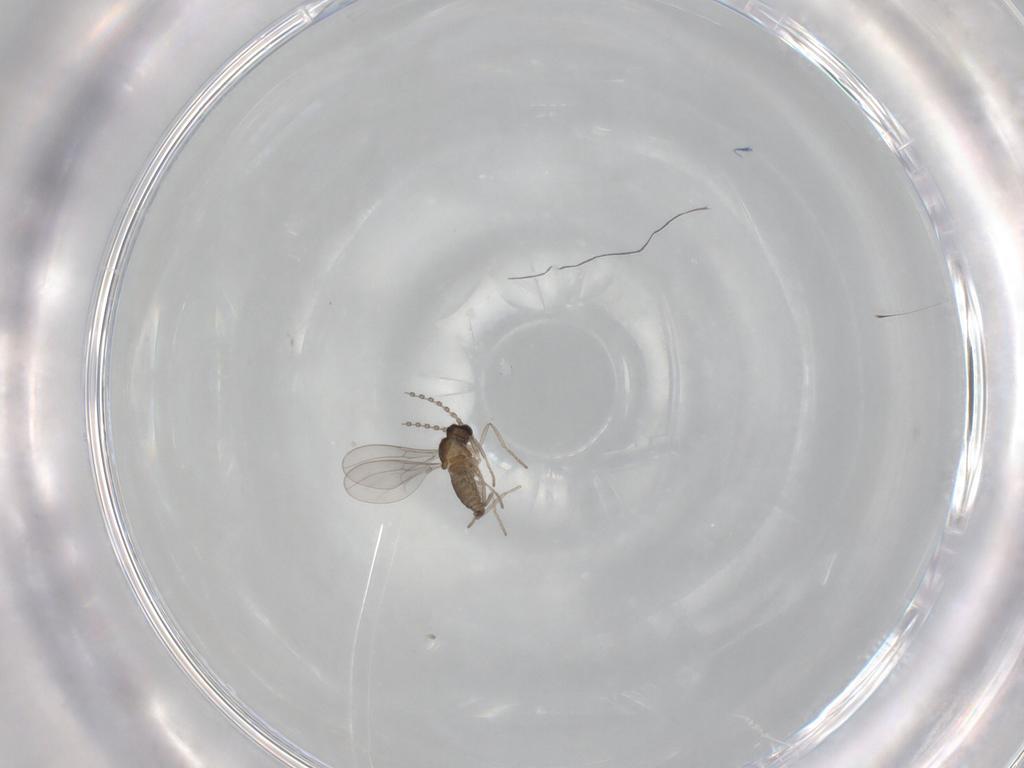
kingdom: Animalia
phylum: Arthropoda
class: Insecta
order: Diptera
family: Cecidomyiidae
